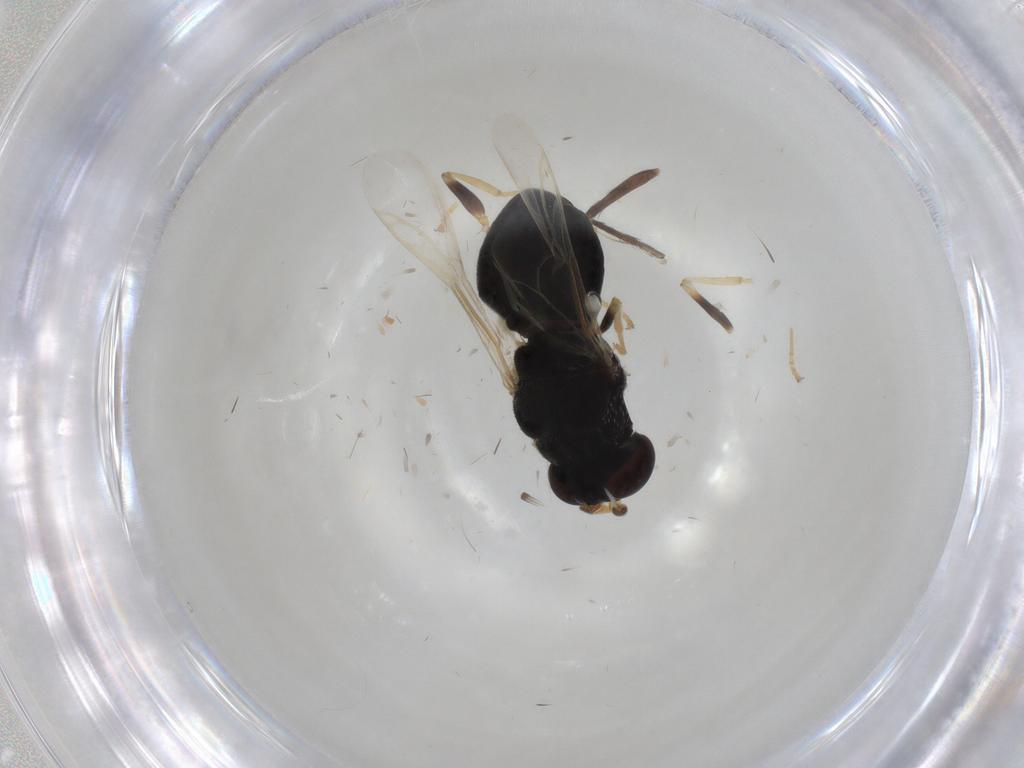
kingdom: Animalia
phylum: Arthropoda
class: Insecta
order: Diptera
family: Stratiomyidae
